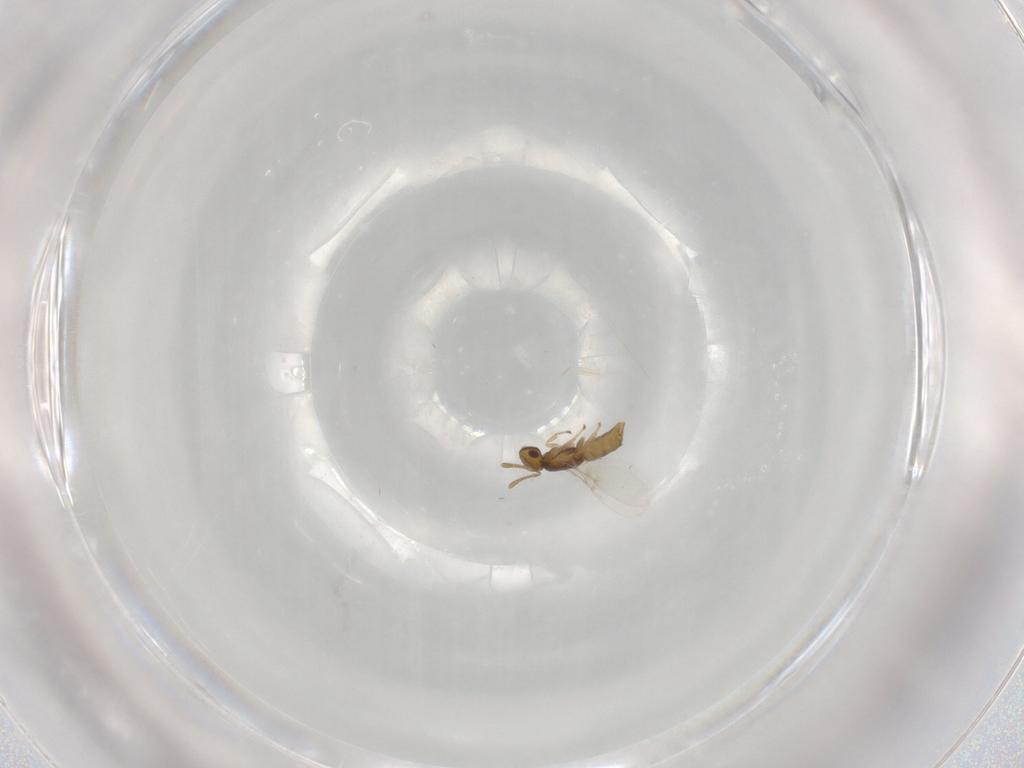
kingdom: Animalia
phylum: Arthropoda
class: Insecta
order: Hymenoptera
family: Encyrtidae
